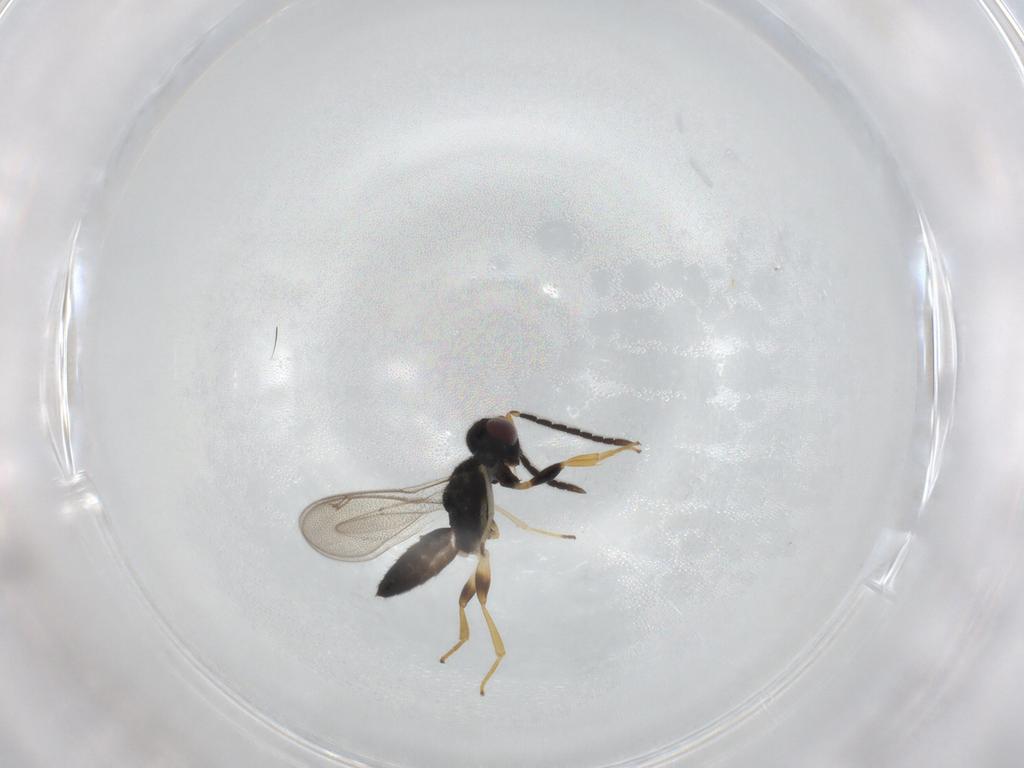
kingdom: Animalia
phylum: Arthropoda
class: Insecta
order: Hymenoptera
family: Eupelmidae
